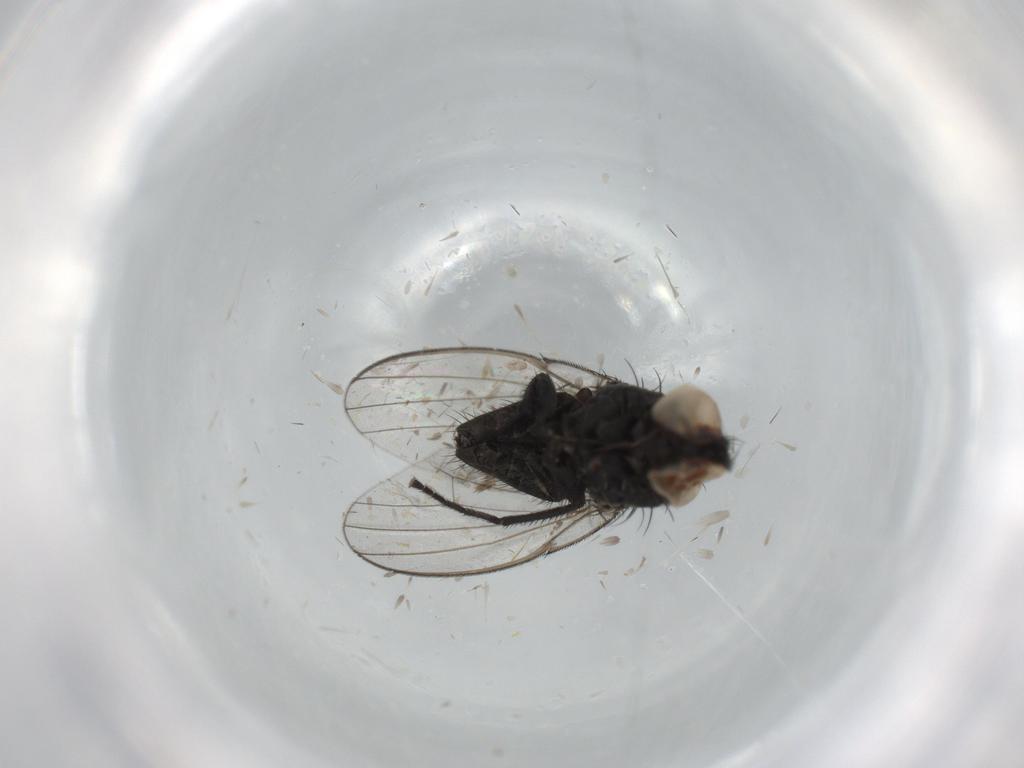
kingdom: Animalia
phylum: Arthropoda
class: Insecta
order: Diptera
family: Milichiidae
